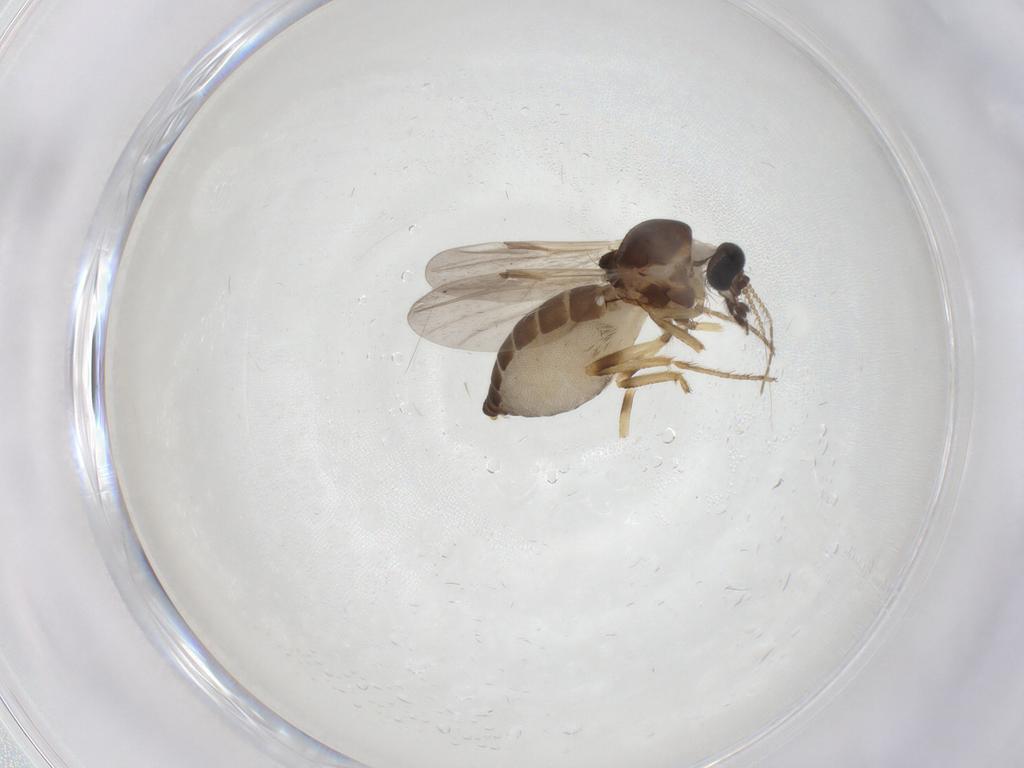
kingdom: Animalia
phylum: Arthropoda
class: Insecta
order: Diptera
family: Ceratopogonidae
